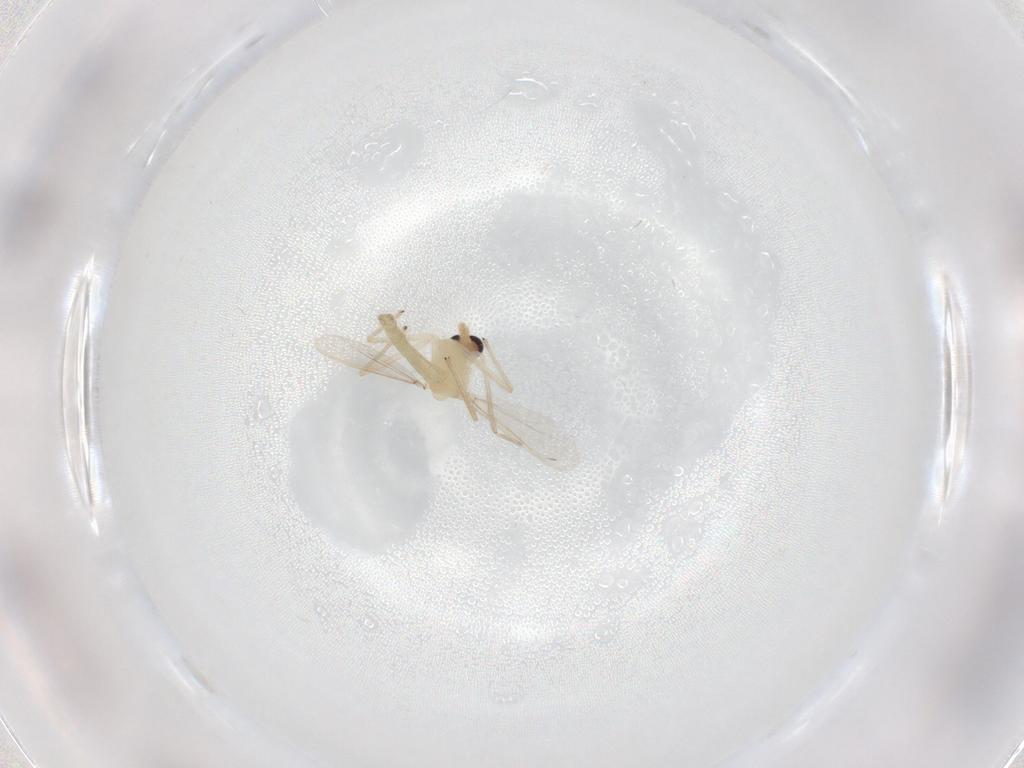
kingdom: Animalia
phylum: Arthropoda
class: Insecta
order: Diptera
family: Chironomidae
